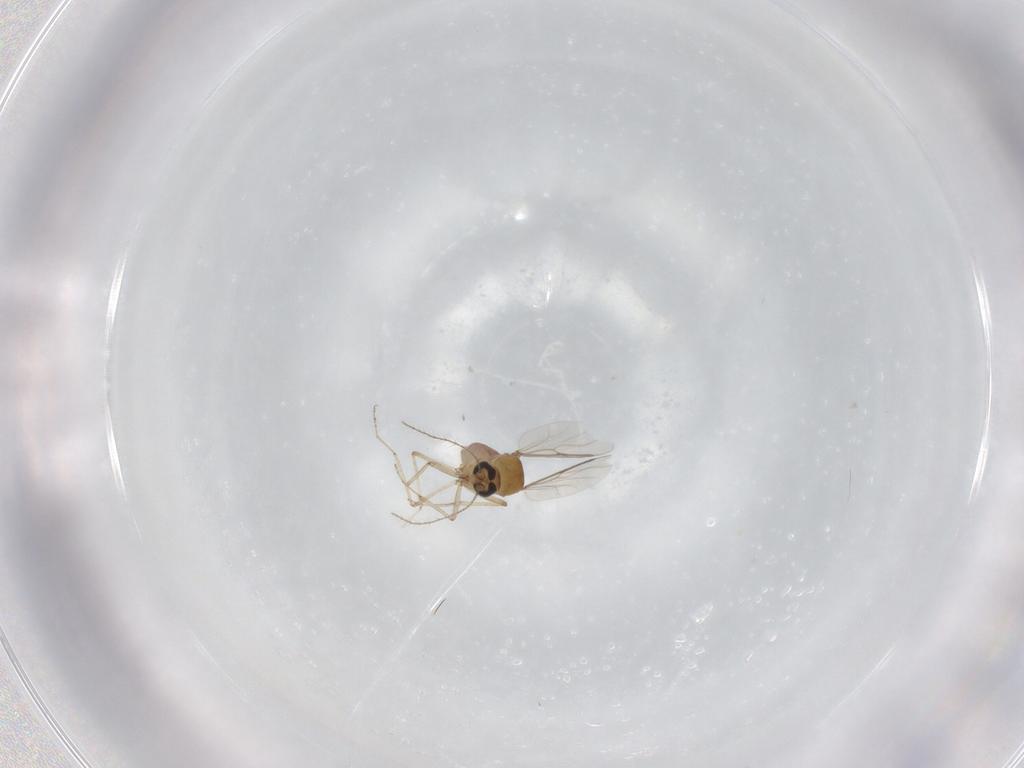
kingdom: Animalia
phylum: Arthropoda
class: Insecta
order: Diptera
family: Ceratopogonidae
